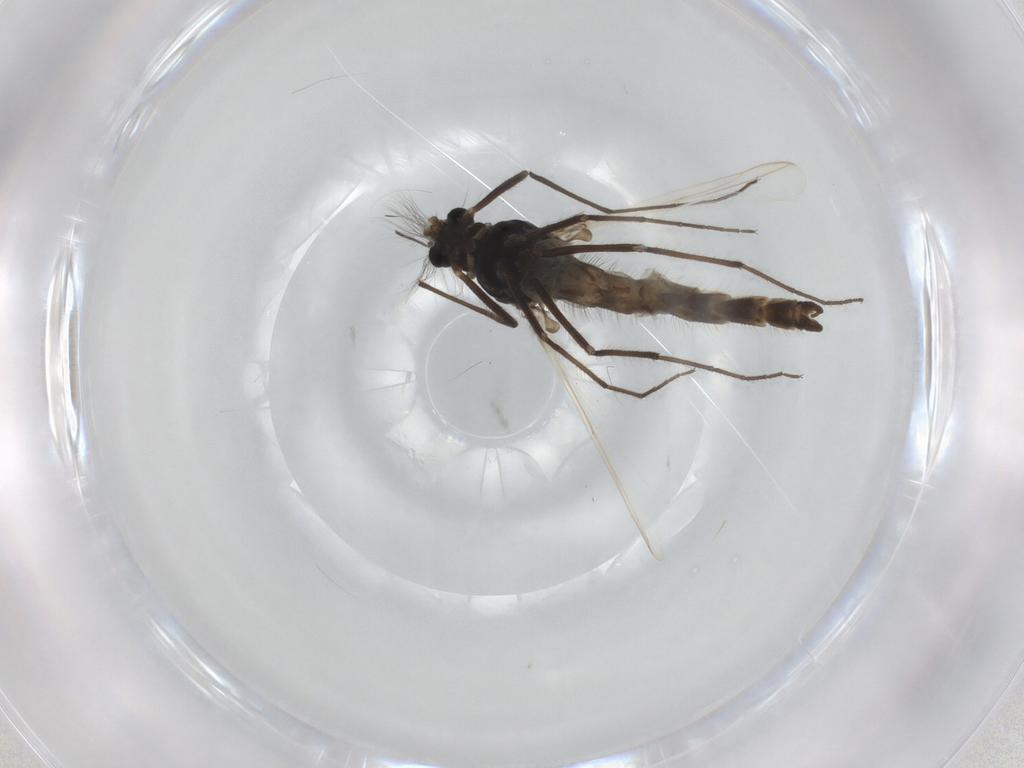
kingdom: Animalia
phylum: Arthropoda
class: Insecta
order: Diptera
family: Chironomidae
